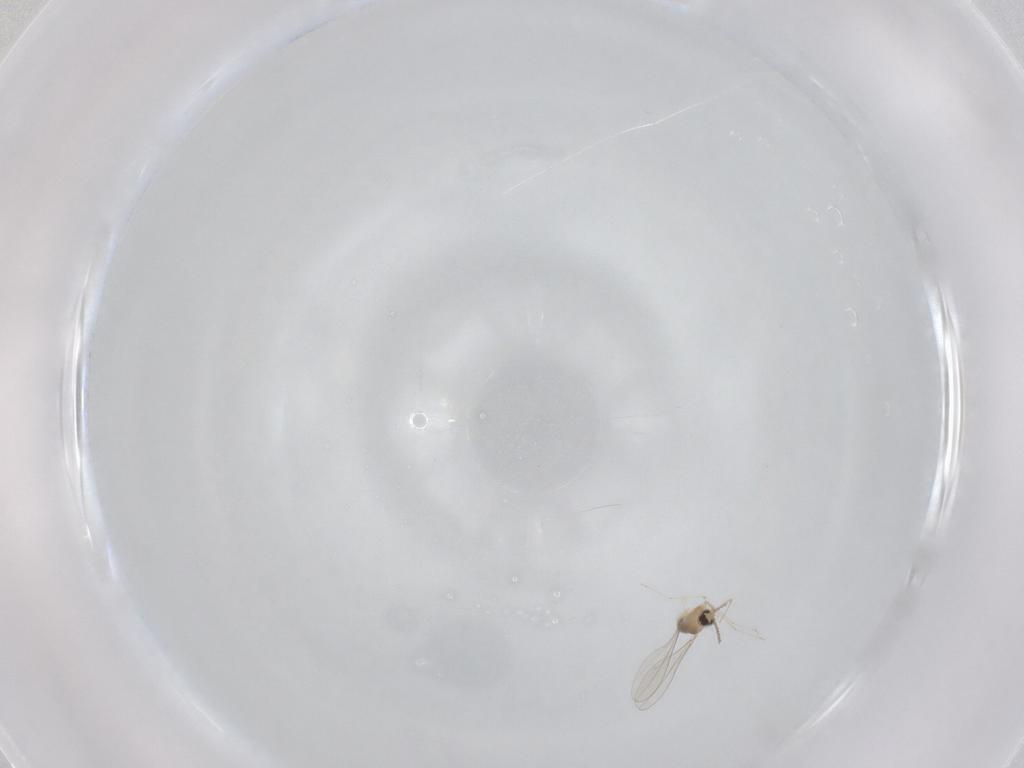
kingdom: Animalia
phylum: Arthropoda
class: Insecta
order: Diptera
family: Cecidomyiidae
